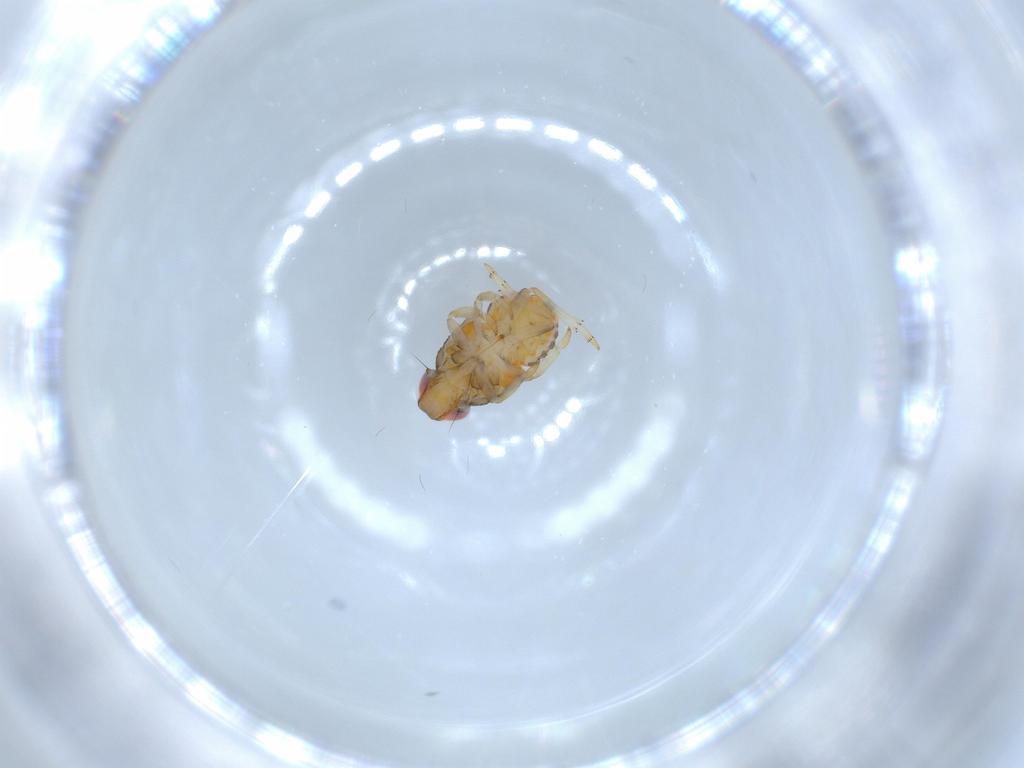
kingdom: Animalia
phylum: Arthropoda
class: Insecta
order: Hemiptera
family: Issidae
